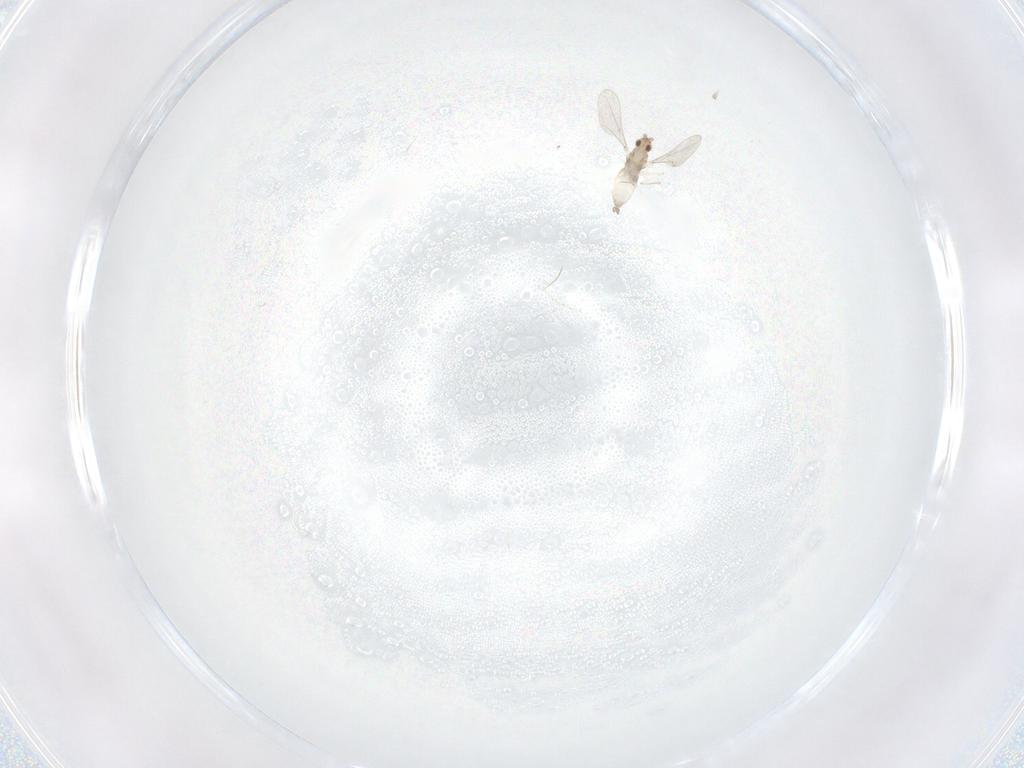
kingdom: Animalia
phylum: Arthropoda
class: Insecta
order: Diptera
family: Cecidomyiidae
